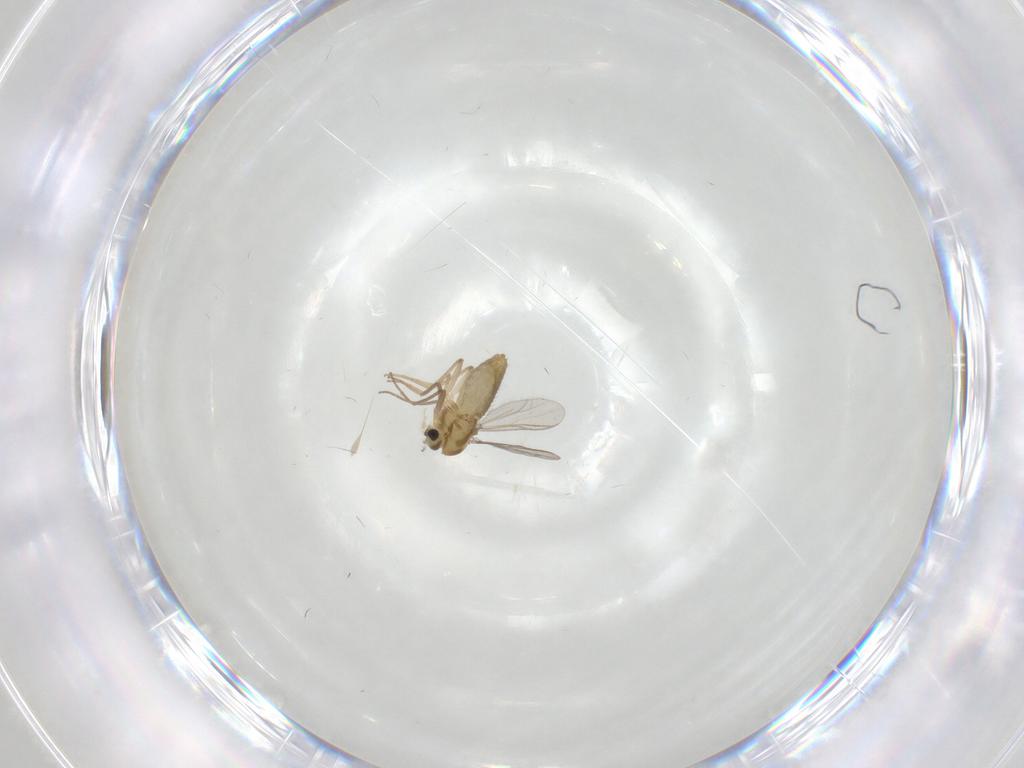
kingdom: Animalia
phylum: Arthropoda
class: Insecta
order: Diptera
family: Chironomidae
